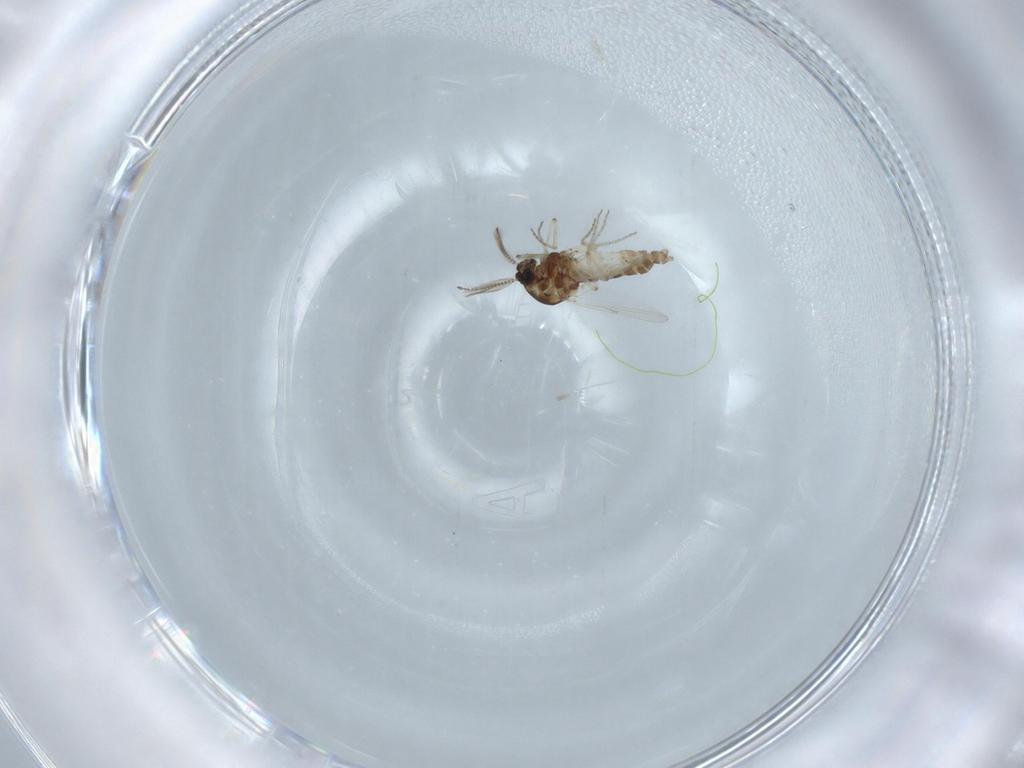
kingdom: Animalia
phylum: Arthropoda
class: Insecta
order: Diptera
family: Ceratopogonidae
